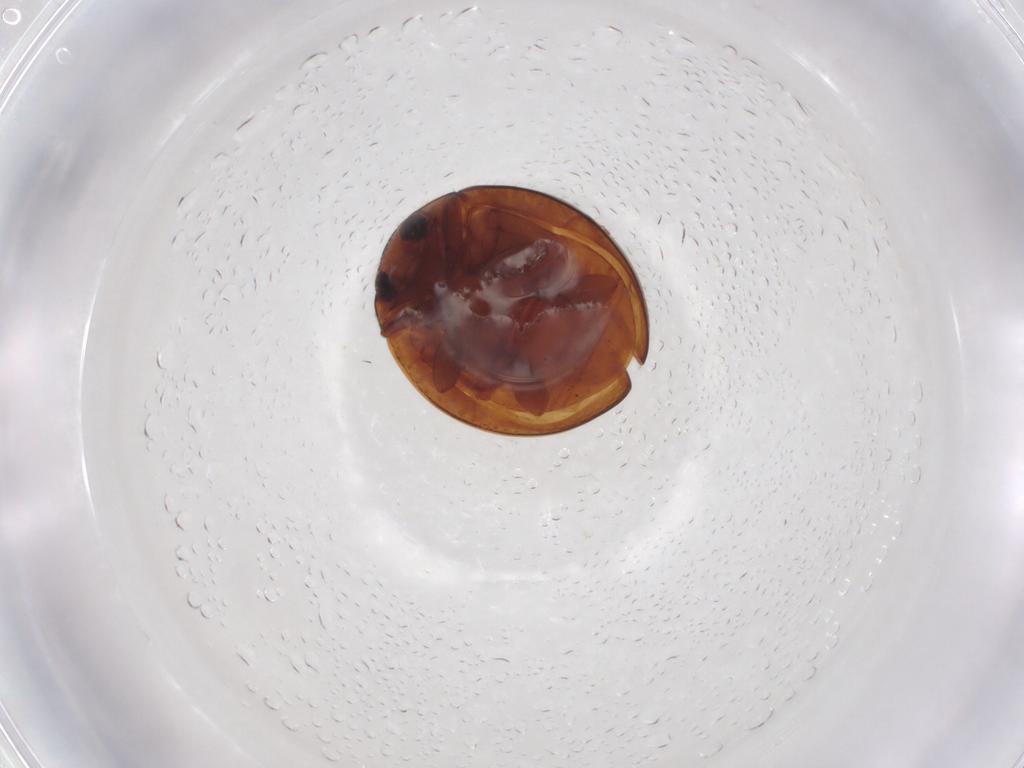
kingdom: Animalia
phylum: Arthropoda
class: Insecta
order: Coleoptera
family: Coccinellidae
